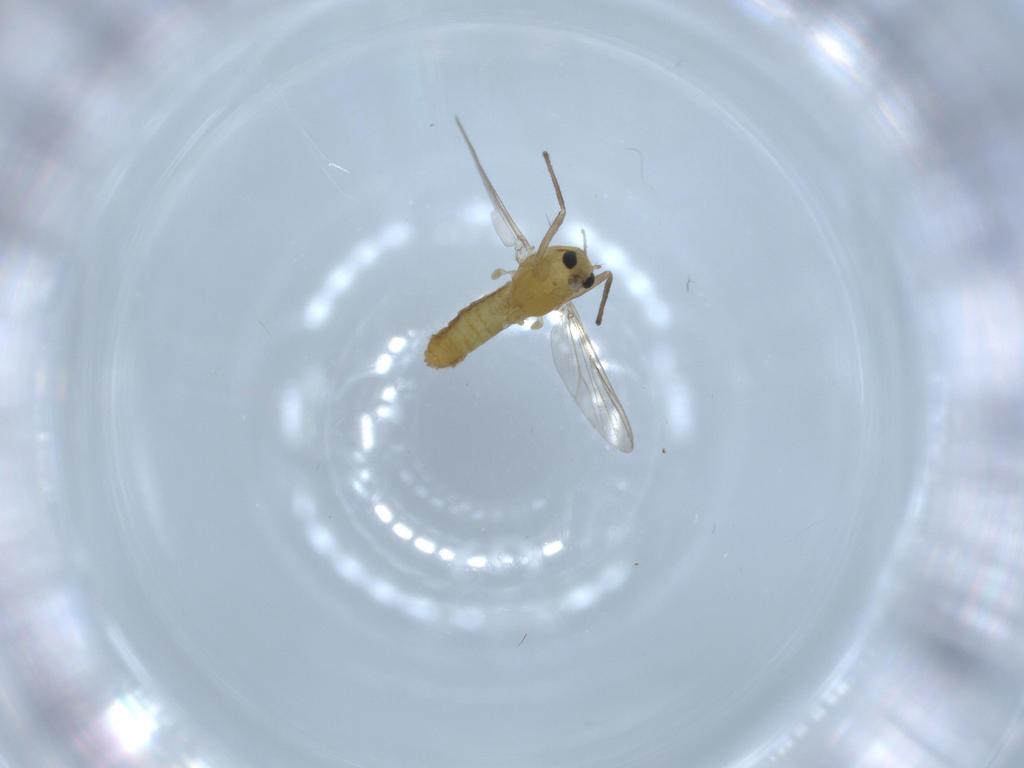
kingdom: Animalia
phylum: Arthropoda
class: Insecta
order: Diptera
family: Chironomidae
